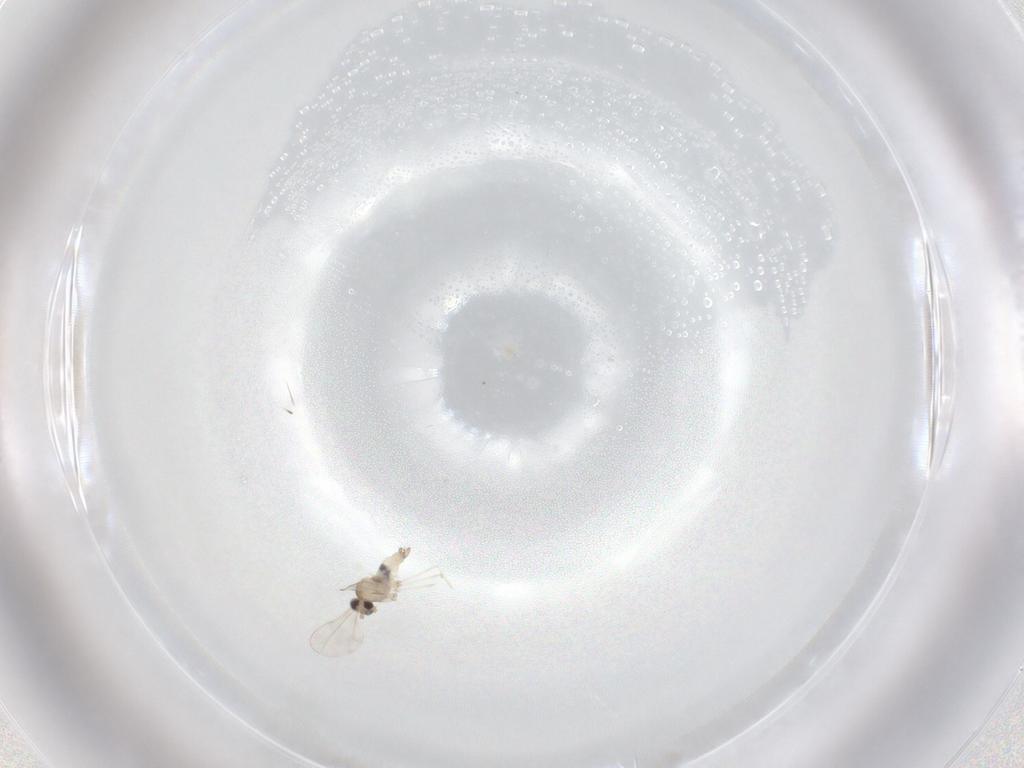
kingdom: Animalia
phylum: Arthropoda
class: Insecta
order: Diptera
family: Cecidomyiidae
